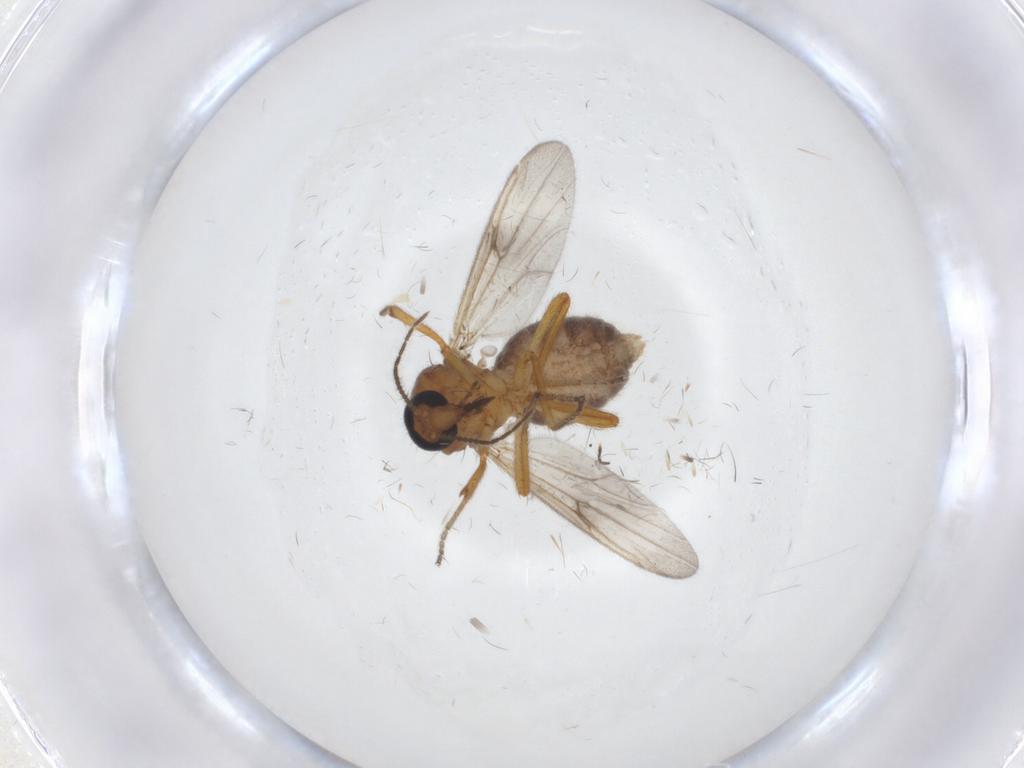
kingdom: Animalia
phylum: Arthropoda
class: Insecta
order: Diptera
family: Ceratopogonidae
